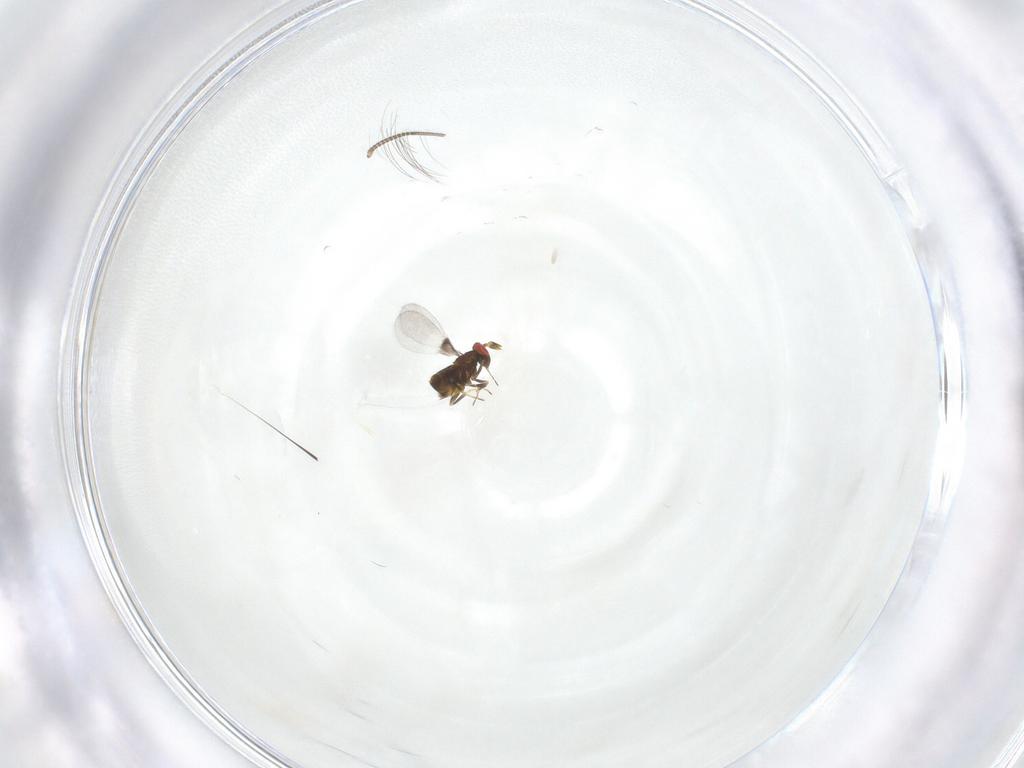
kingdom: Animalia
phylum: Arthropoda
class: Insecta
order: Hymenoptera
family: Trichogrammatidae
